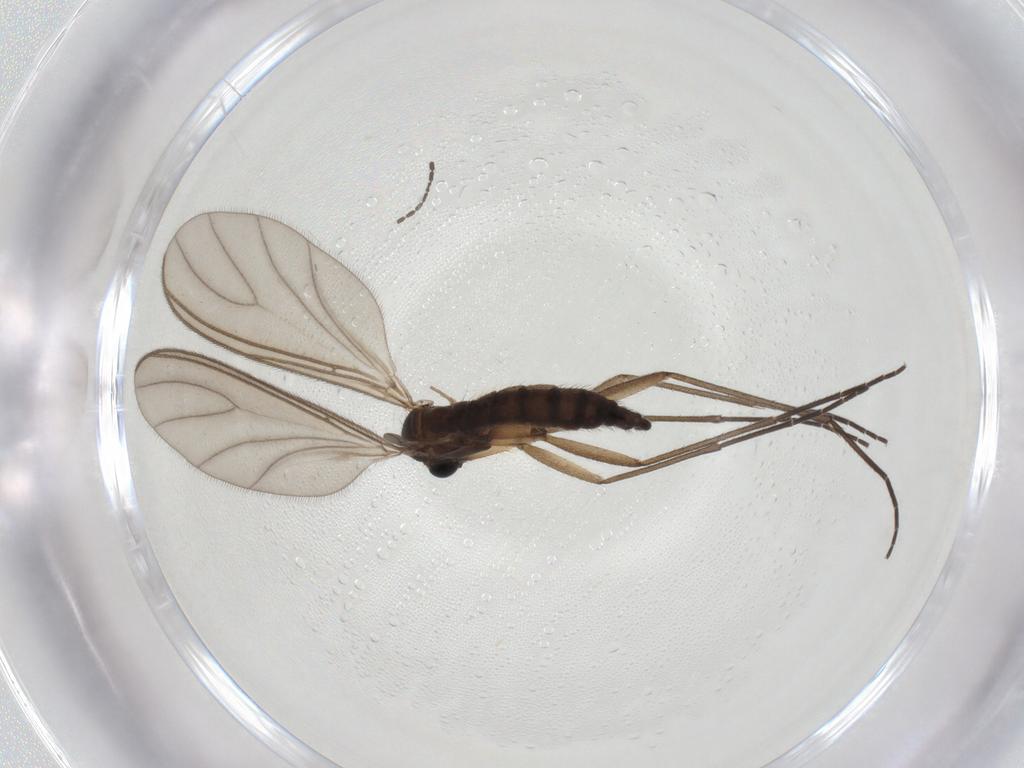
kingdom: Animalia
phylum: Arthropoda
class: Insecta
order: Diptera
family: Sciaridae
